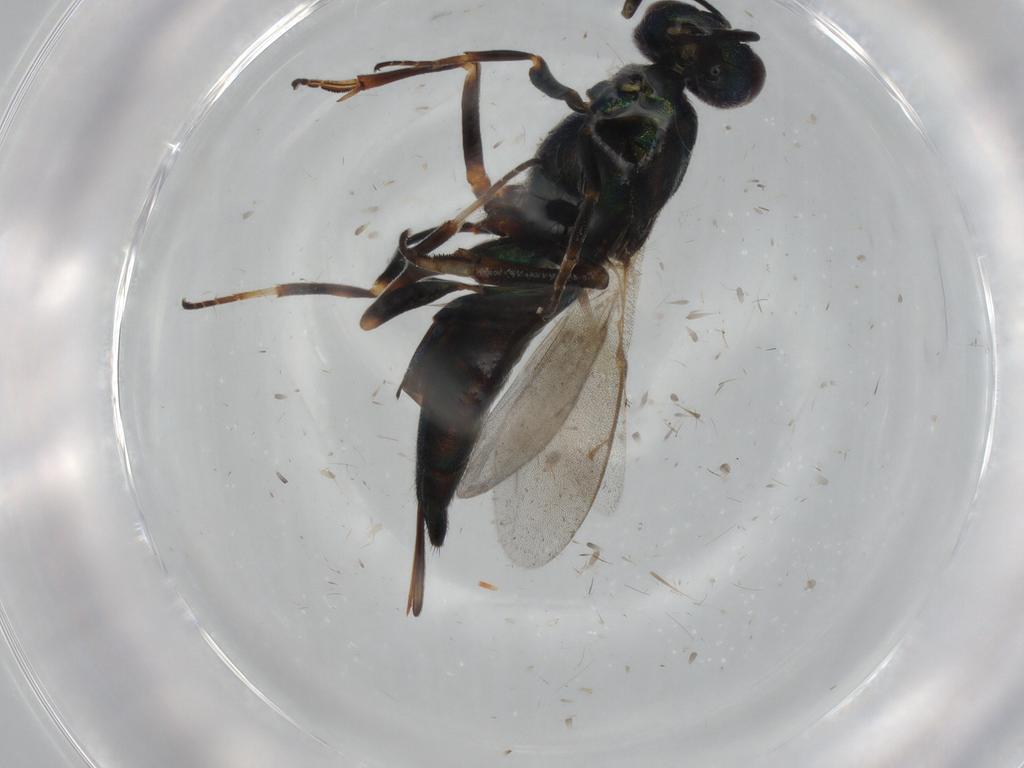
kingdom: Animalia
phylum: Arthropoda
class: Insecta
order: Hymenoptera
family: Eupelmidae
